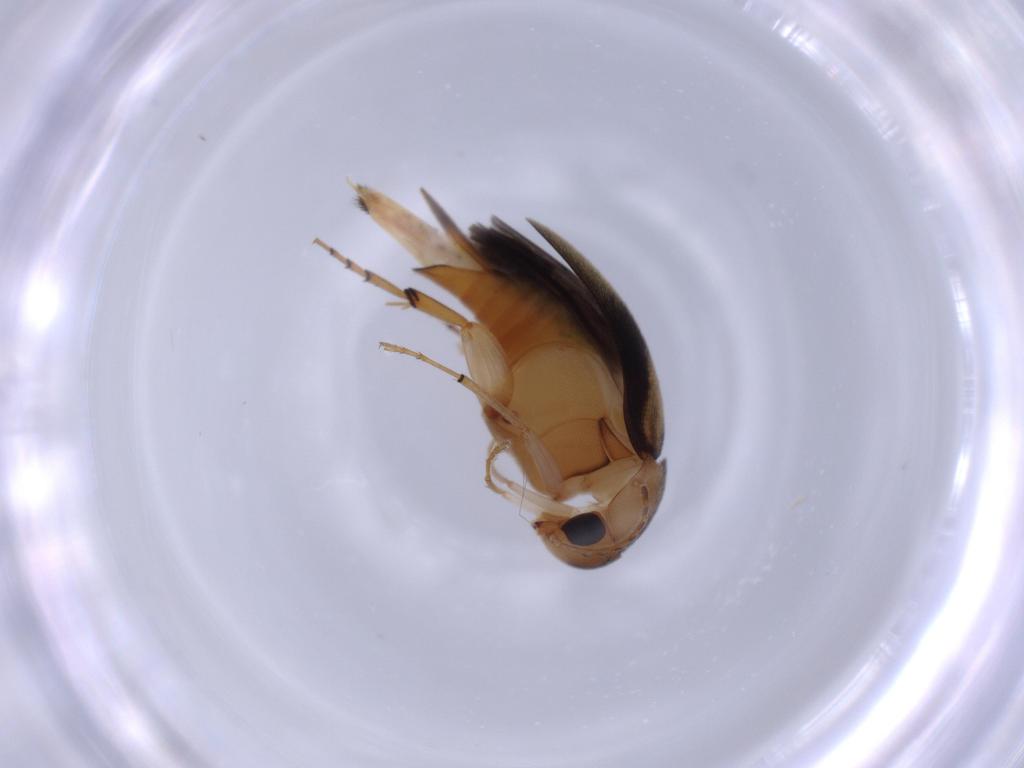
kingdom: Animalia
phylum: Arthropoda
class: Insecta
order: Coleoptera
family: Mordellidae
